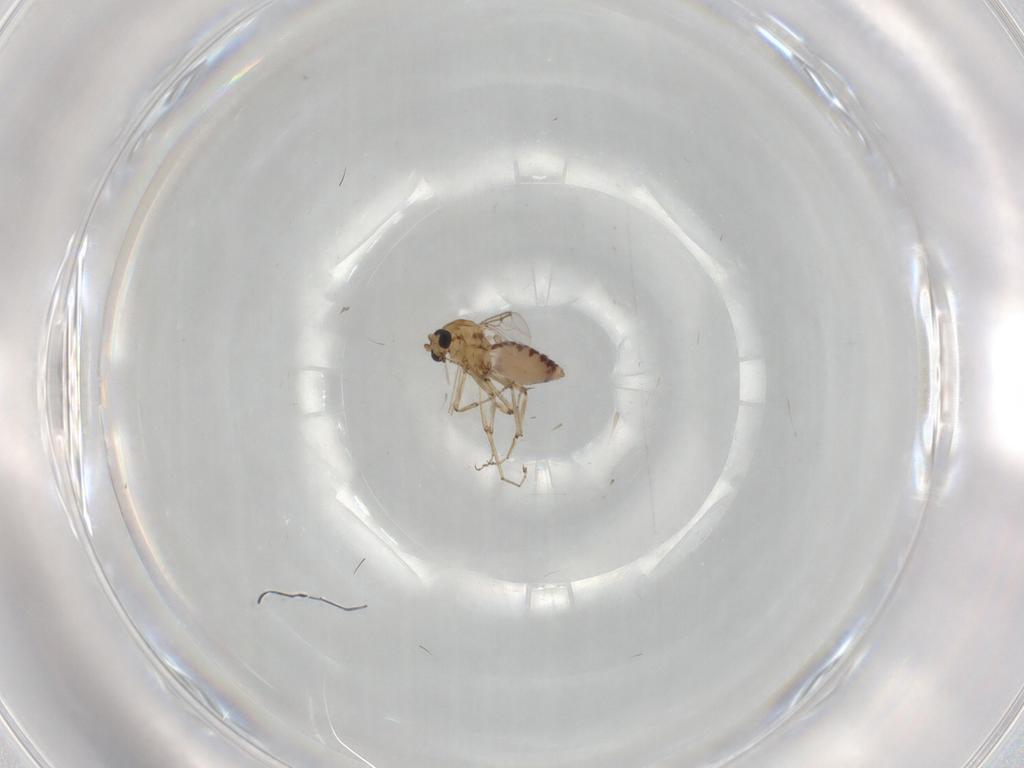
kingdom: Animalia
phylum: Arthropoda
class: Insecta
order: Diptera
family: Ceratopogonidae
